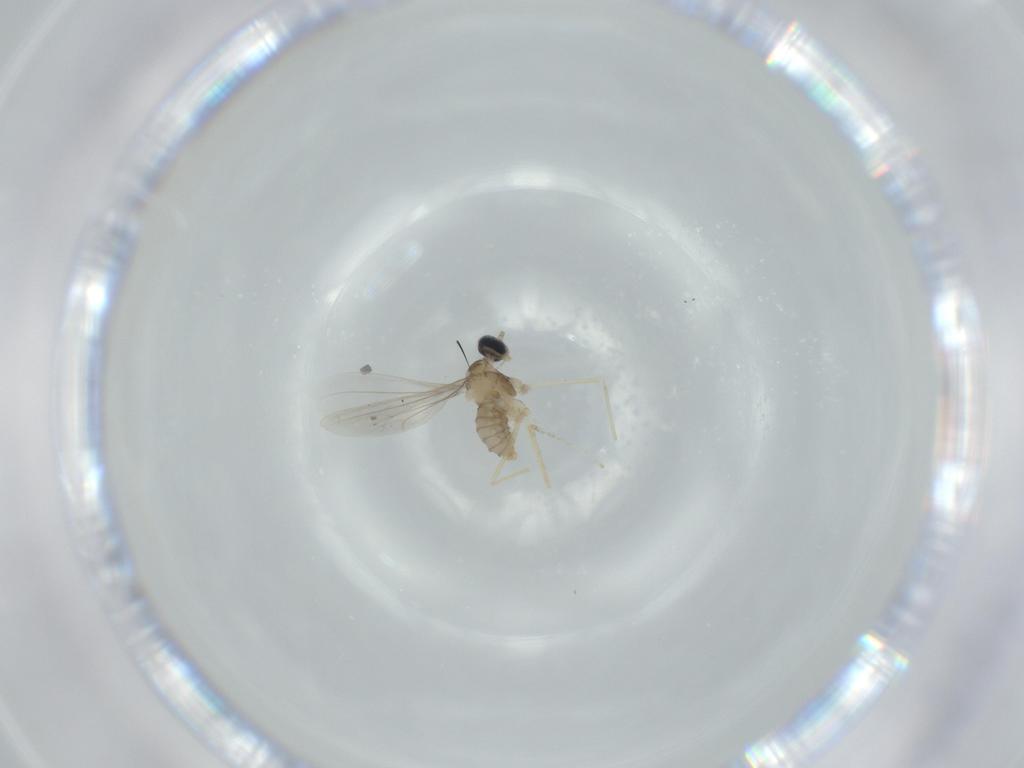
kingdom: Animalia
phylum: Arthropoda
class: Insecta
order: Diptera
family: Cecidomyiidae
